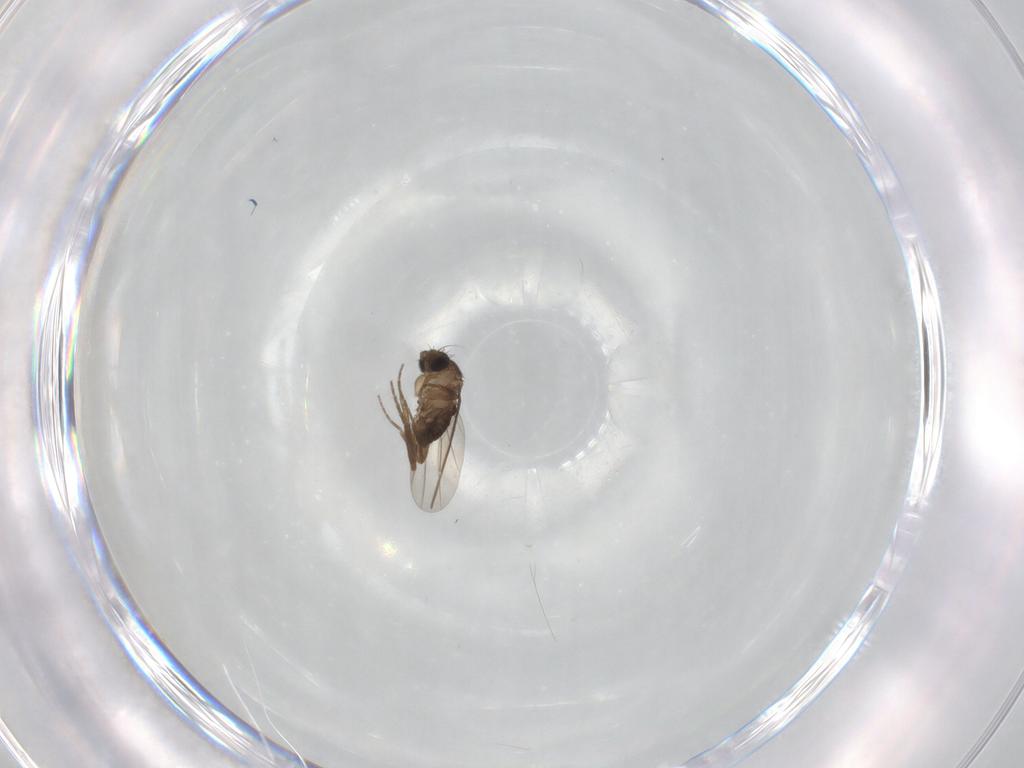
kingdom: Animalia
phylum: Arthropoda
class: Insecta
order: Diptera
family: Phoridae
